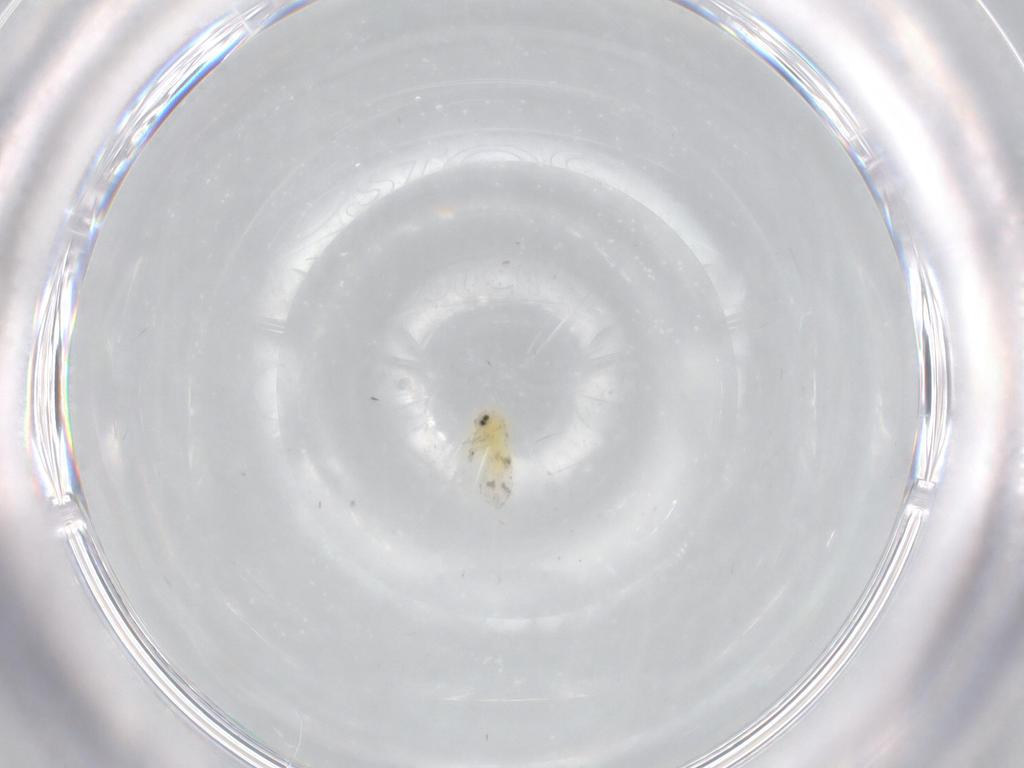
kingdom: Animalia
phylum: Arthropoda
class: Insecta
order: Hemiptera
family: Aleyrodidae
